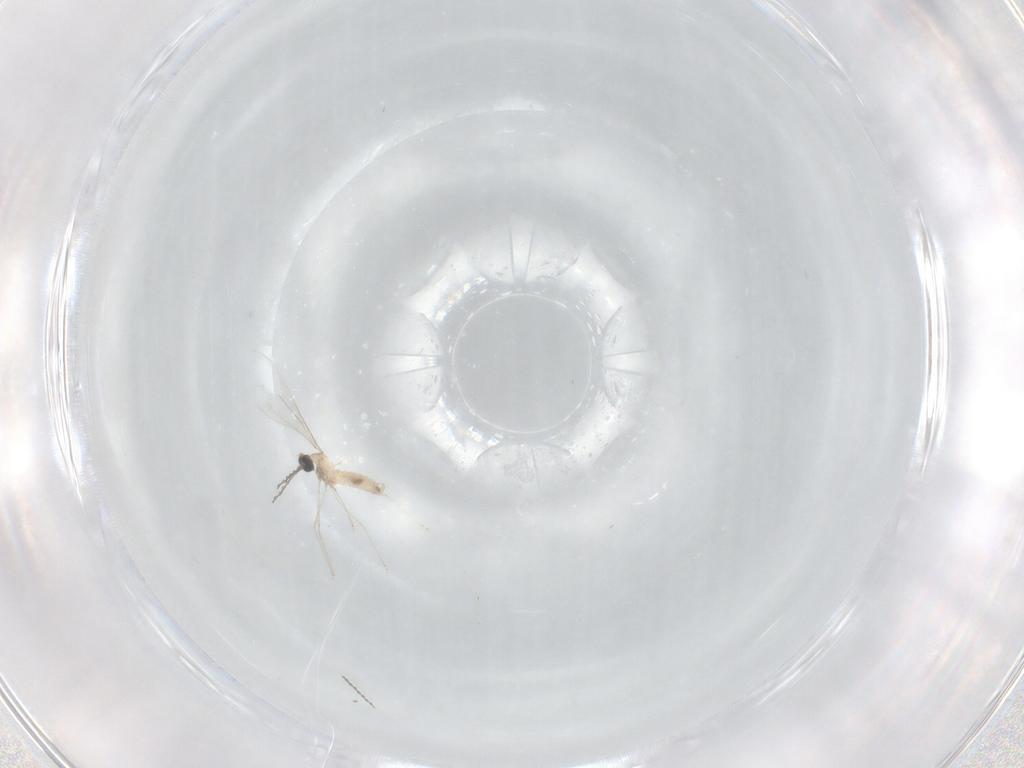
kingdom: Animalia
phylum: Arthropoda
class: Insecta
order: Diptera
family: Cecidomyiidae
